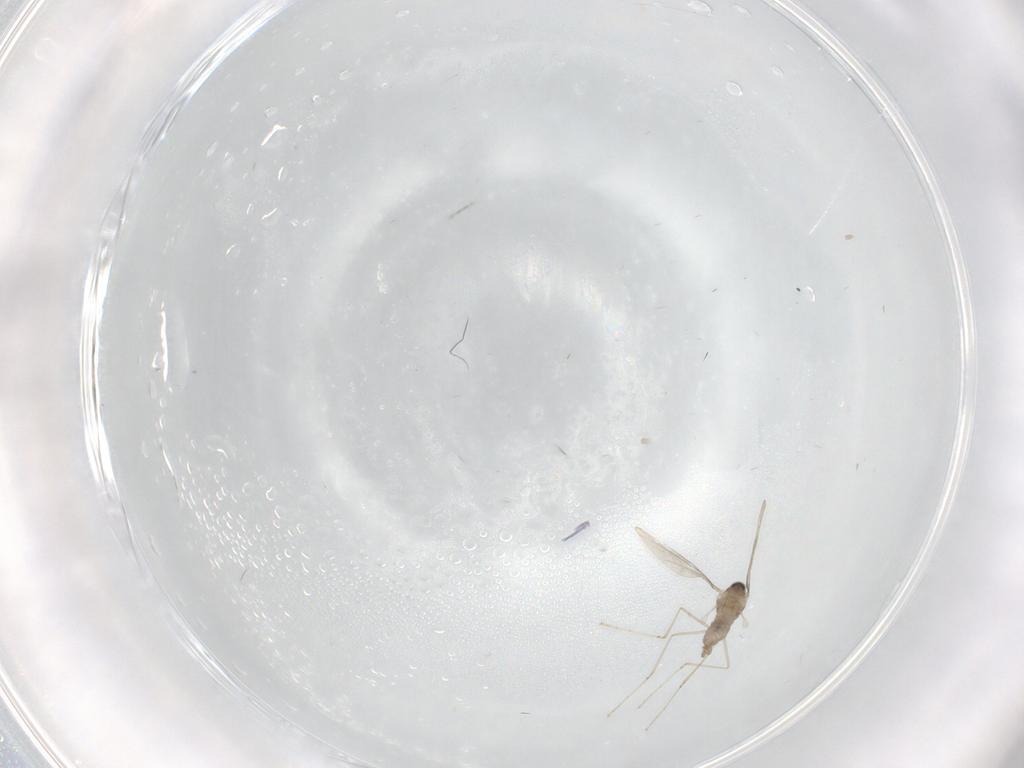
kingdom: Animalia
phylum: Arthropoda
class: Insecta
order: Diptera
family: Cecidomyiidae
